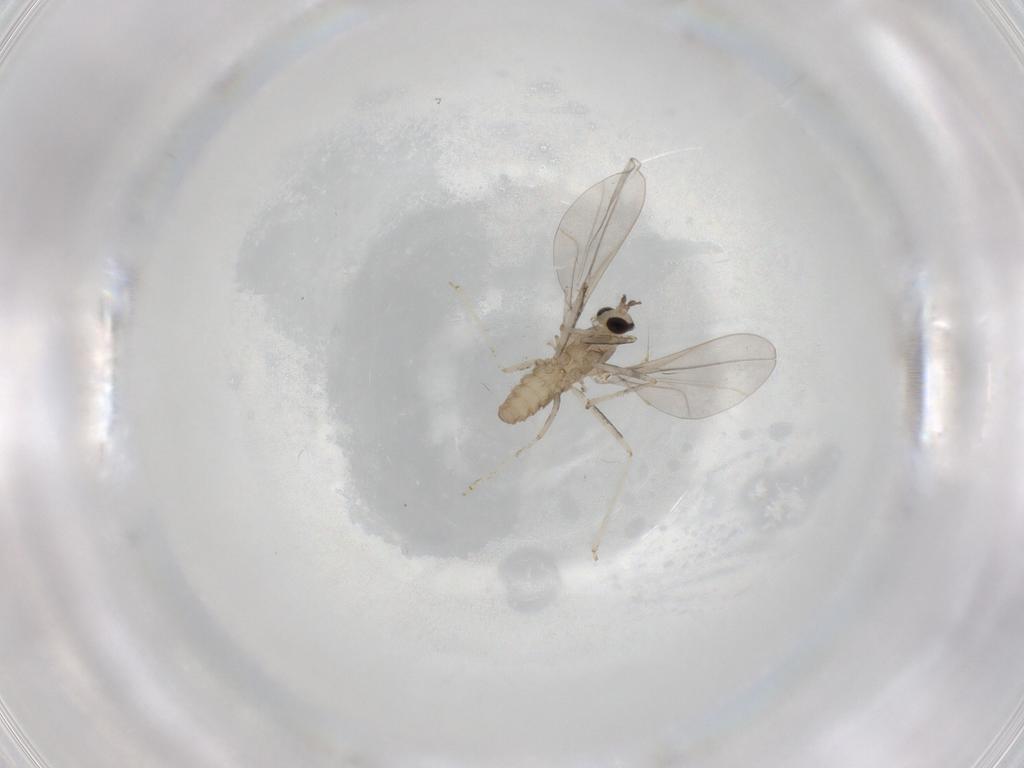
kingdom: Animalia
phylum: Arthropoda
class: Insecta
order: Diptera
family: Cecidomyiidae
